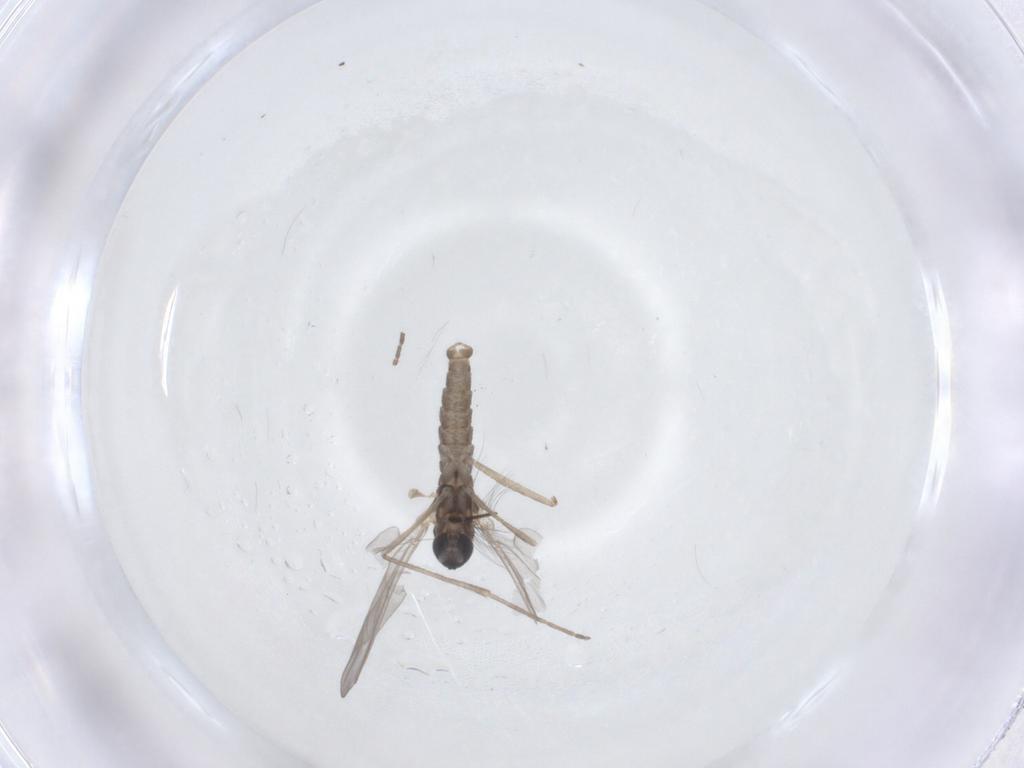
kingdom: Animalia
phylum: Arthropoda
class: Insecta
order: Diptera
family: Cecidomyiidae
